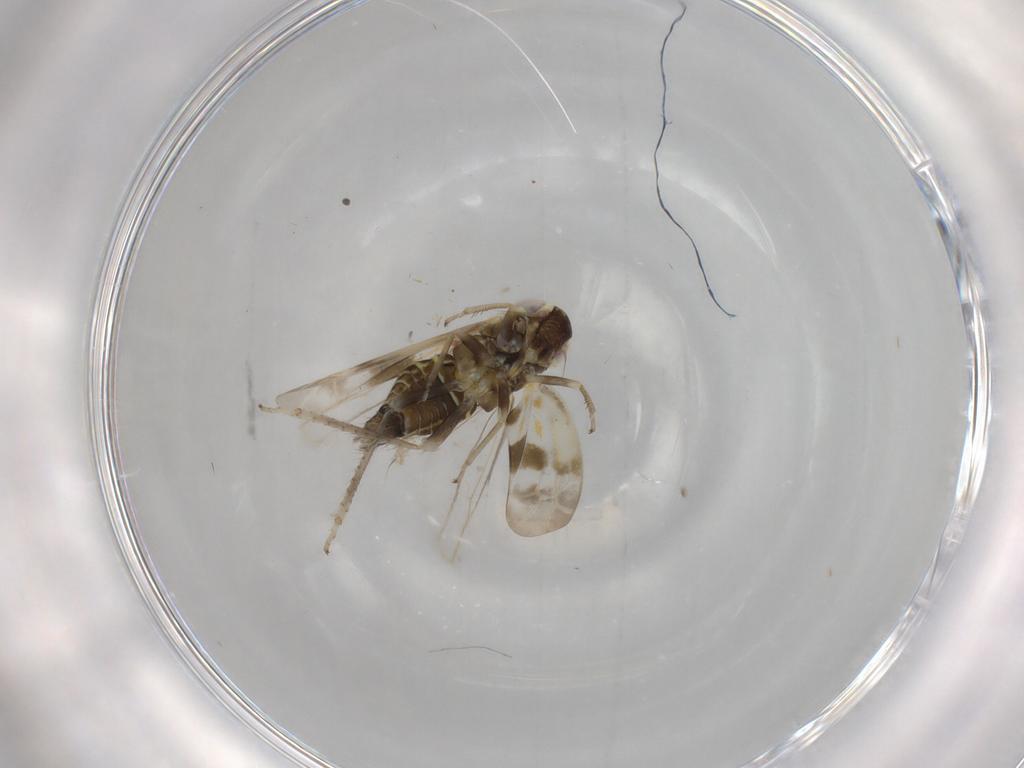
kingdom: Animalia
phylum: Arthropoda
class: Insecta
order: Hemiptera
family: Cicadellidae
